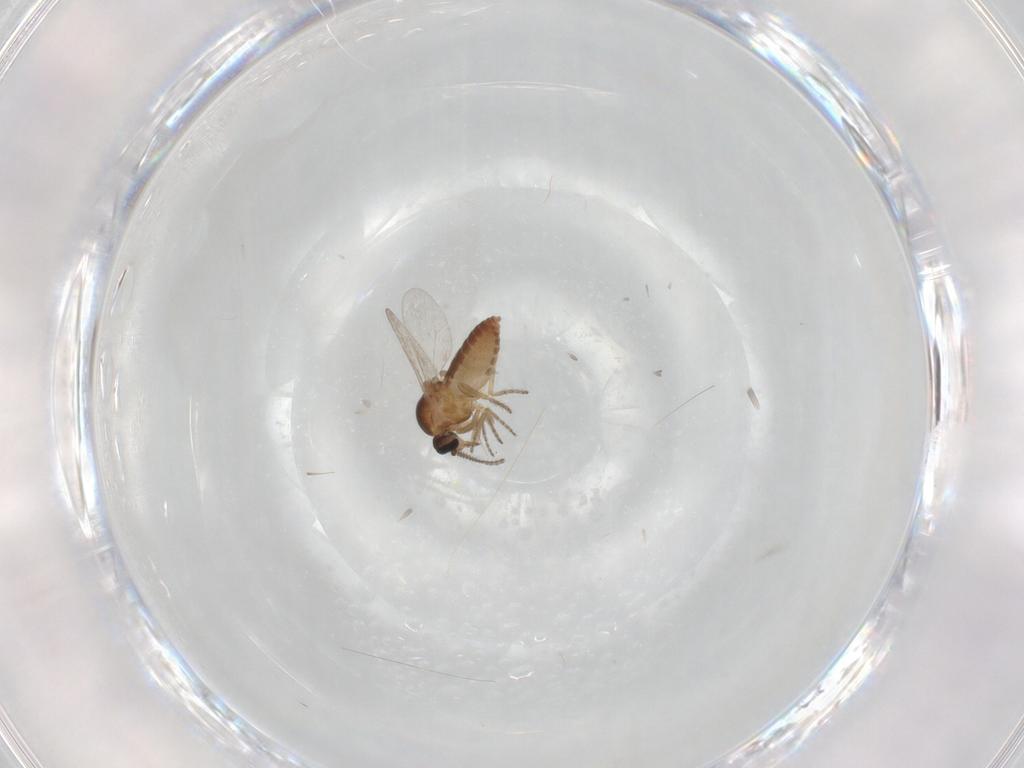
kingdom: Animalia
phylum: Arthropoda
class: Insecta
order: Diptera
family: Ceratopogonidae
